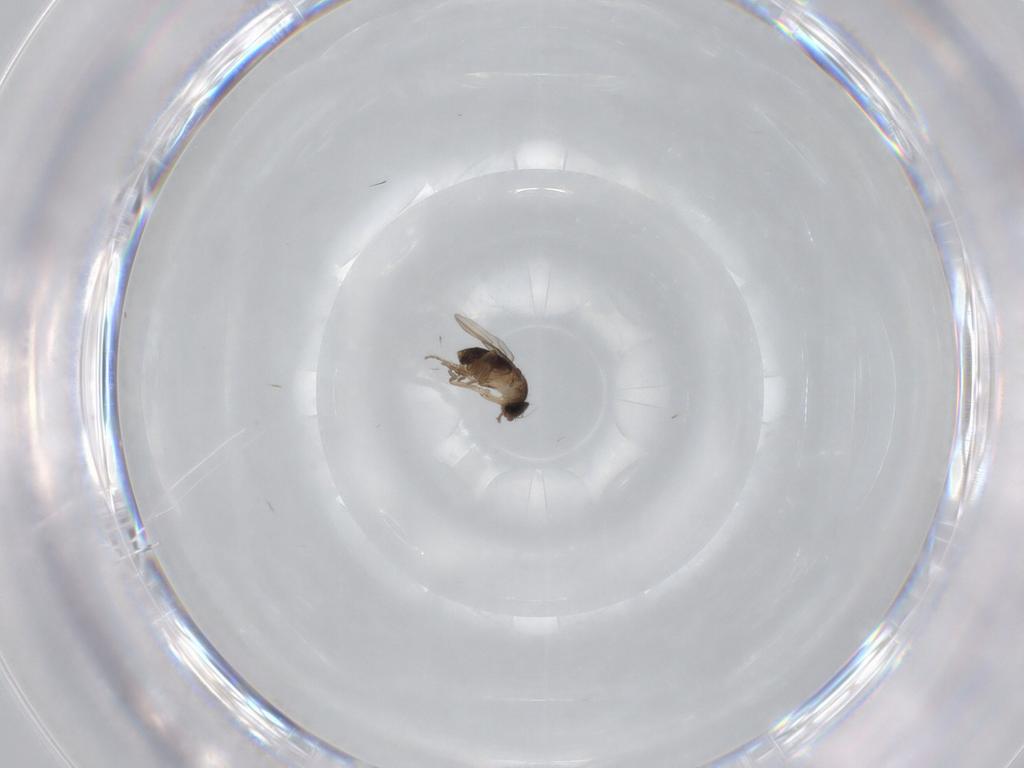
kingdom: Animalia
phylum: Arthropoda
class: Insecta
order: Diptera
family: Phoridae
